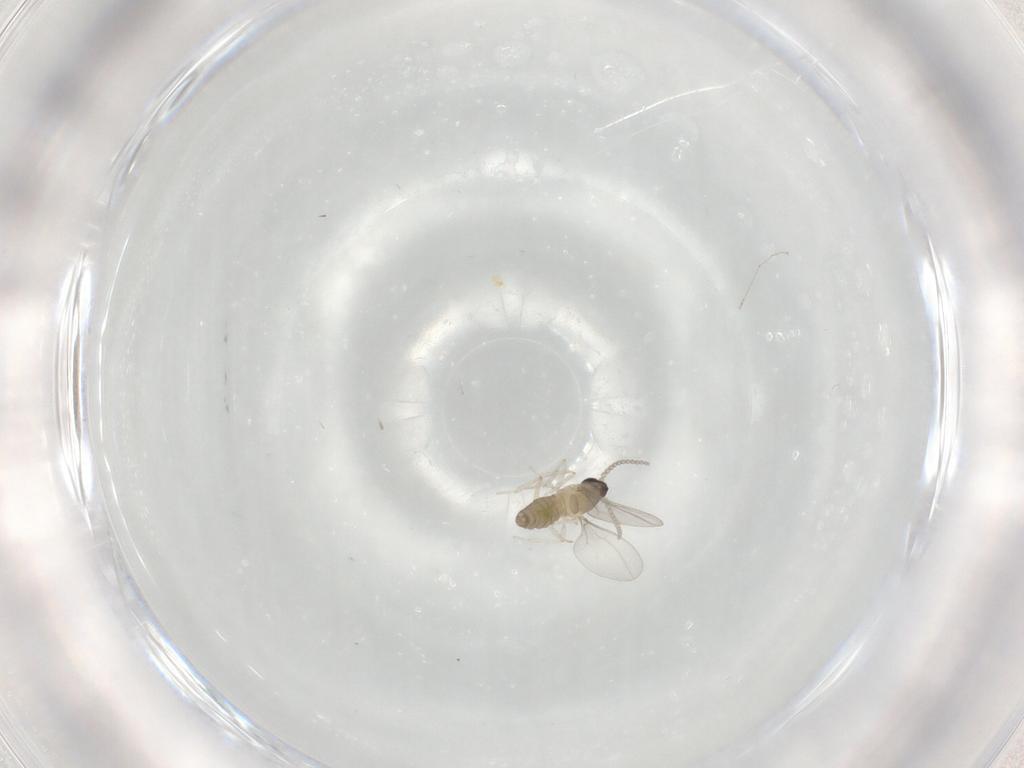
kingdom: Animalia
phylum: Arthropoda
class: Insecta
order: Diptera
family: Cecidomyiidae
